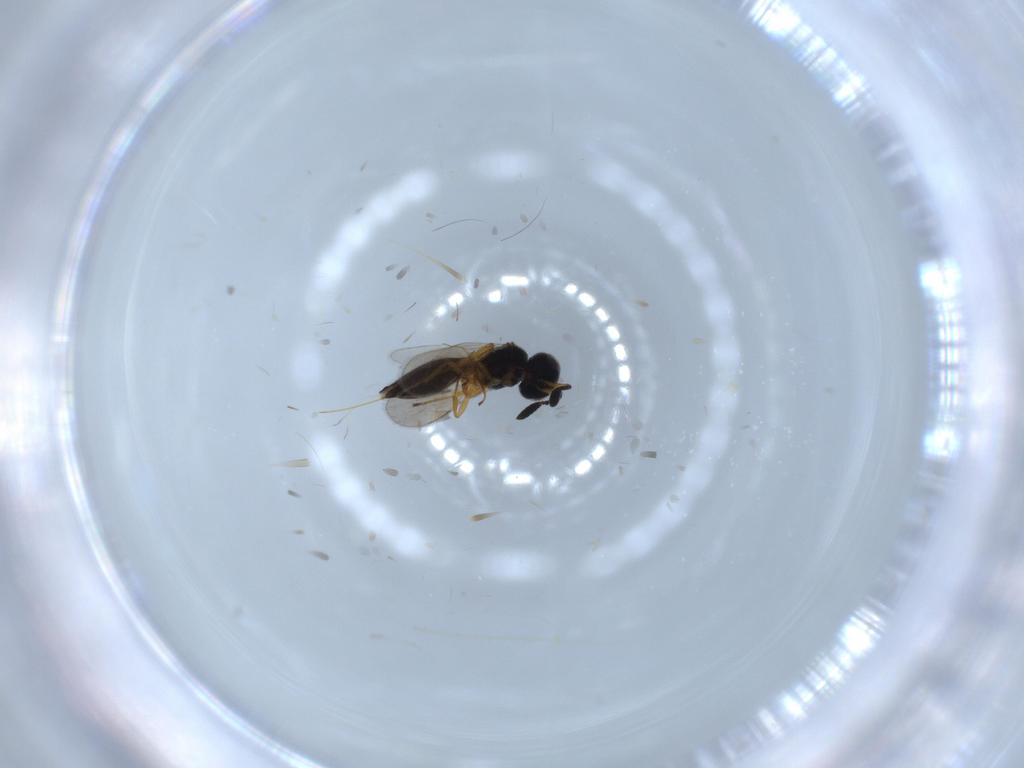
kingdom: Animalia
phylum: Arthropoda
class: Insecta
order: Hymenoptera
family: Scelionidae
